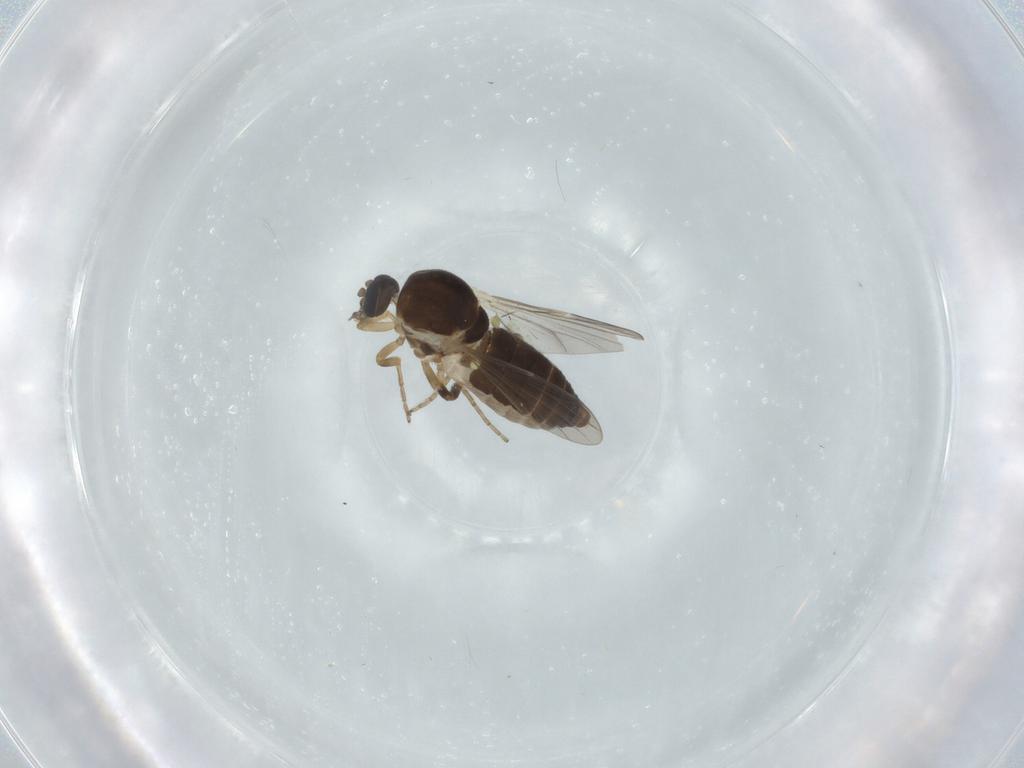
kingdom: Animalia
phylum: Arthropoda
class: Insecta
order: Diptera
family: Ceratopogonidae
